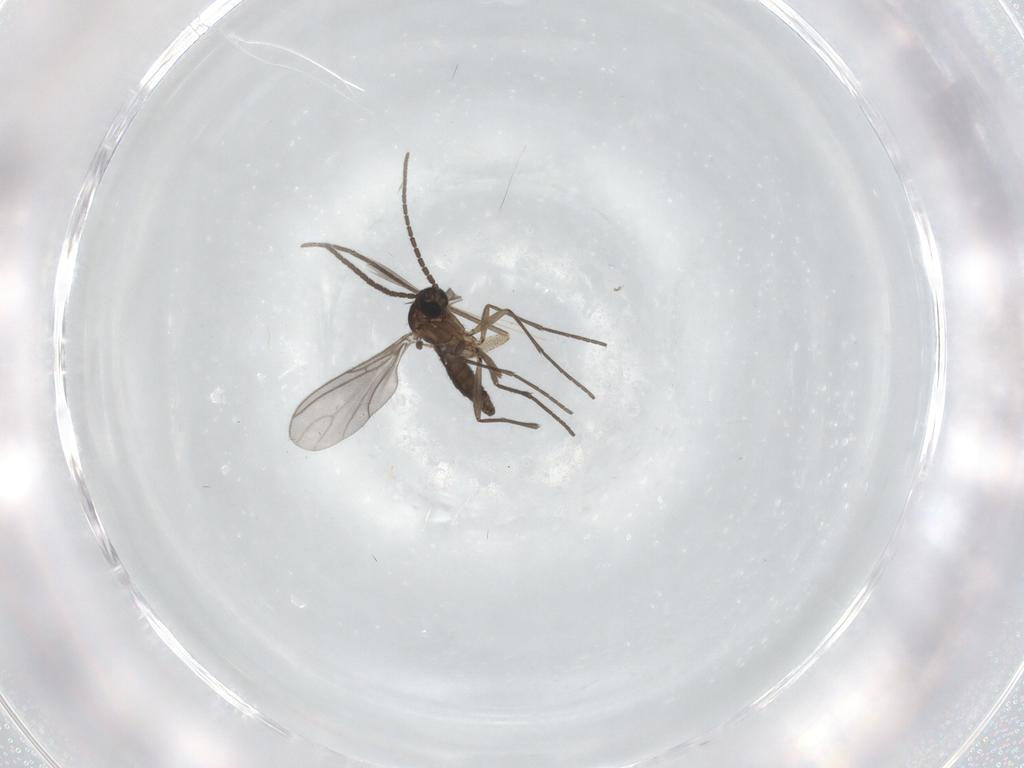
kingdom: Animalia
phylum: Arthropoda
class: Insecta
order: Diptera
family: Sciaridae
